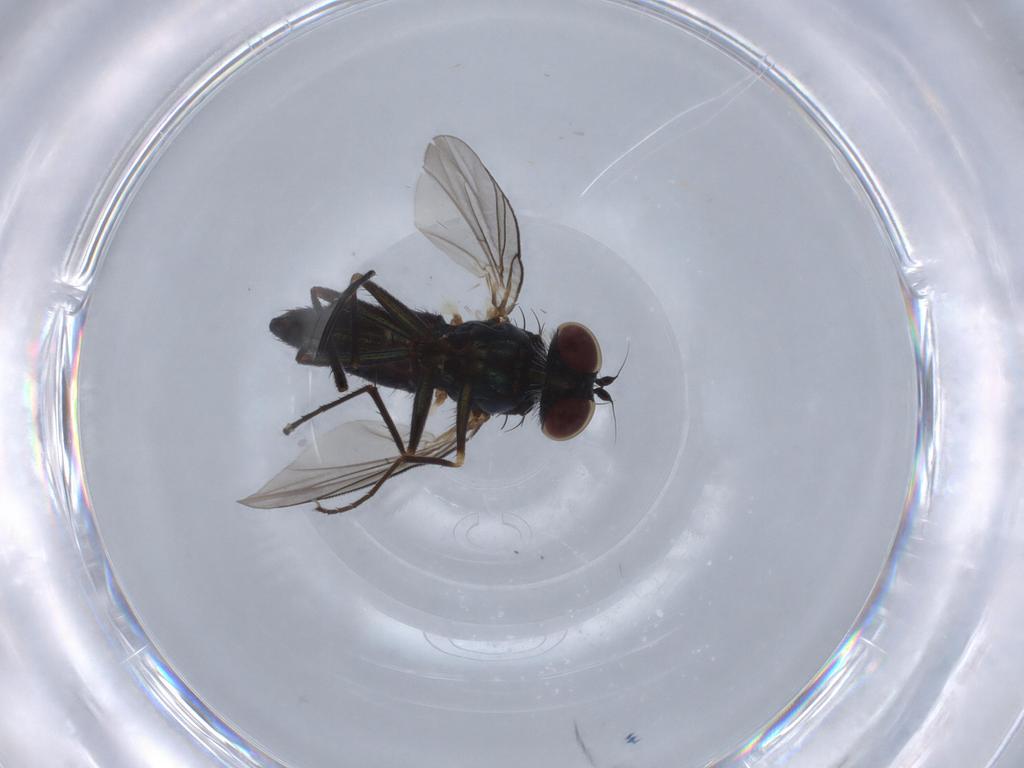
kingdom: Animalia
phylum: Arthropoda
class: Insecta
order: Diptera
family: Dolichopodidae
